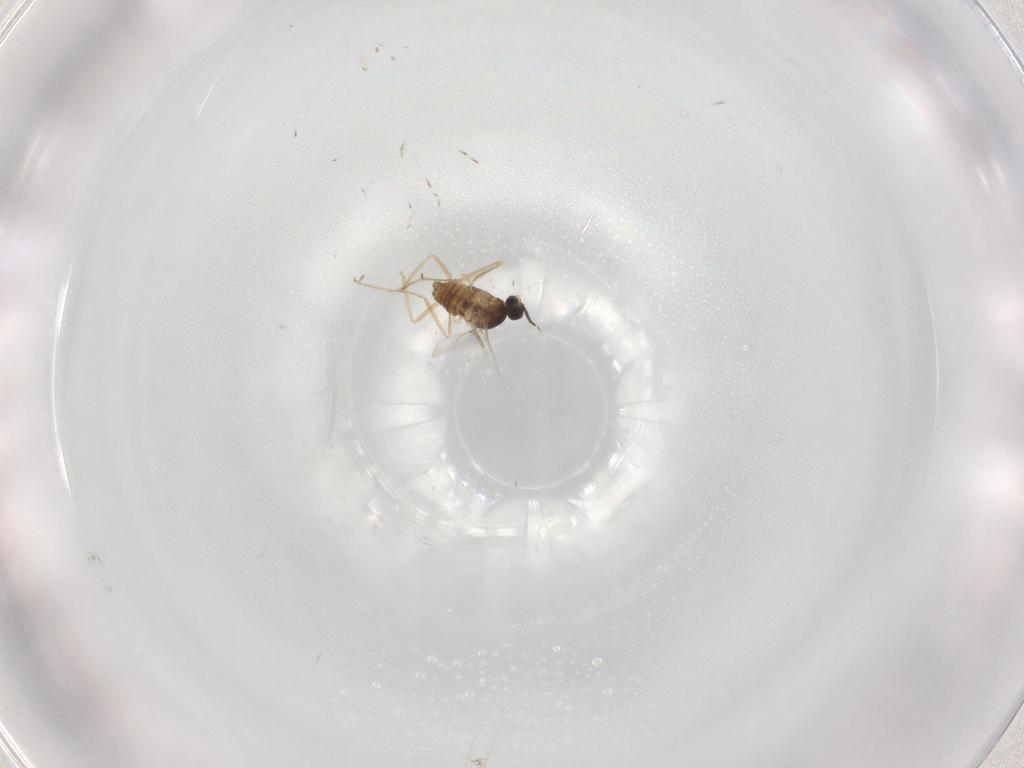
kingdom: Animalia
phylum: Arthropoda
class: Insecta
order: Diptera
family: Cecidomyiidae
